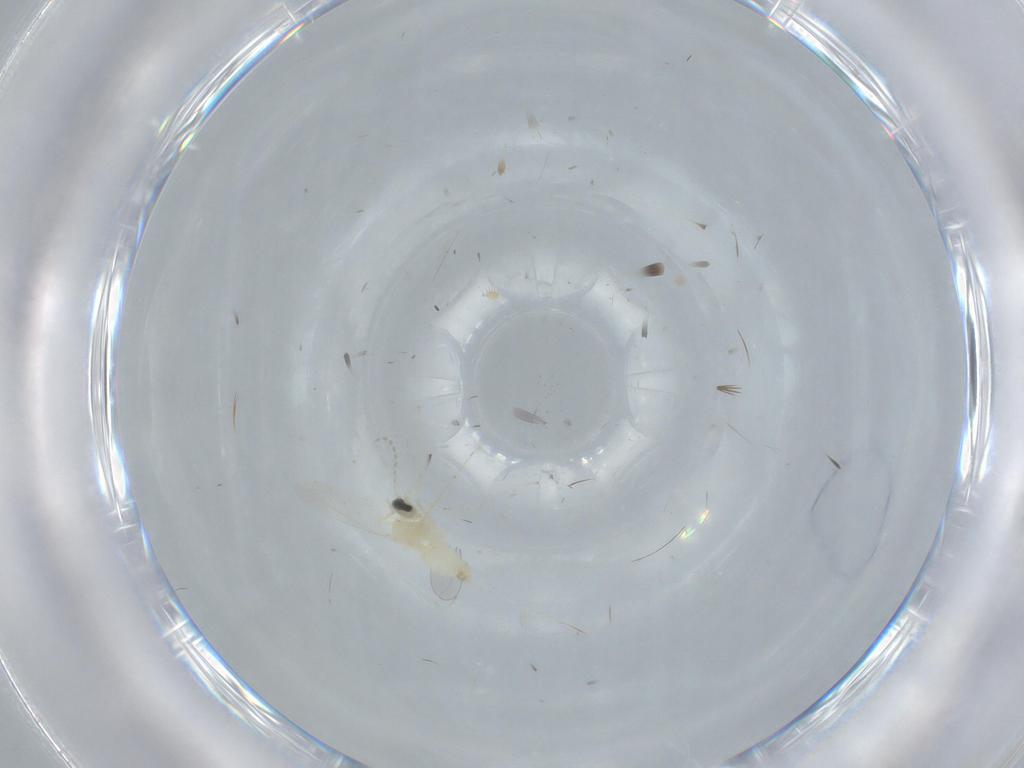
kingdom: Animalia
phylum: Arthropoda
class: Insecta
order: Diptera
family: Cecidomyiidae
